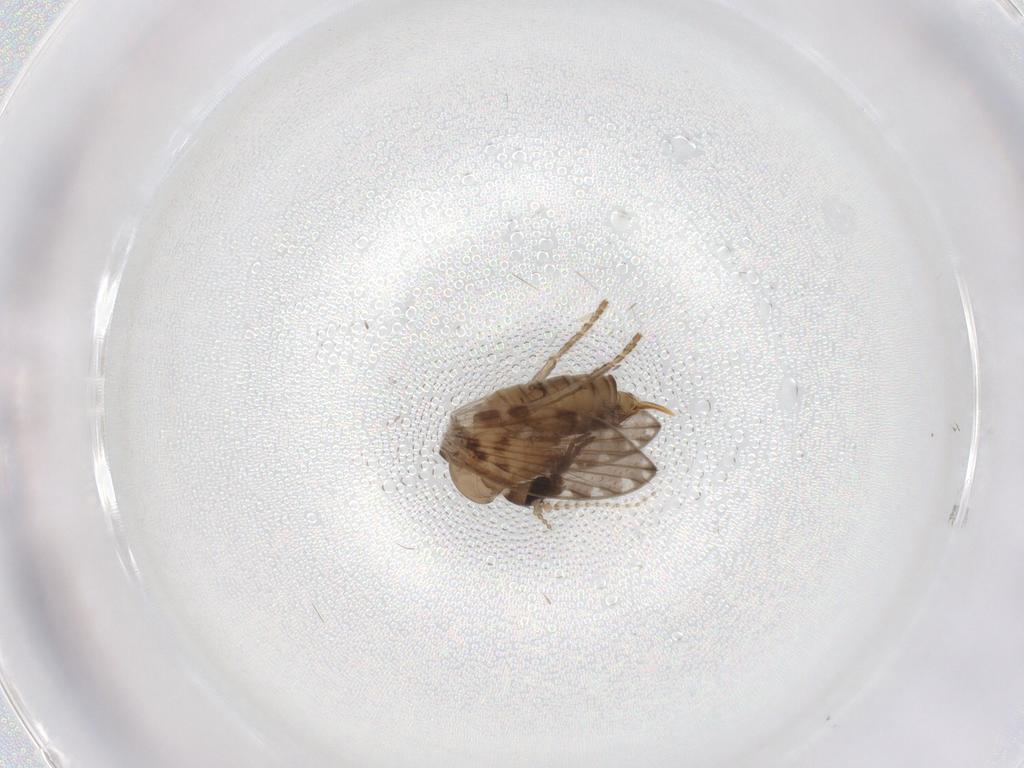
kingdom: Animalia
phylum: Arthropoda
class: Insecta
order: Diptera
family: Psychodidae
